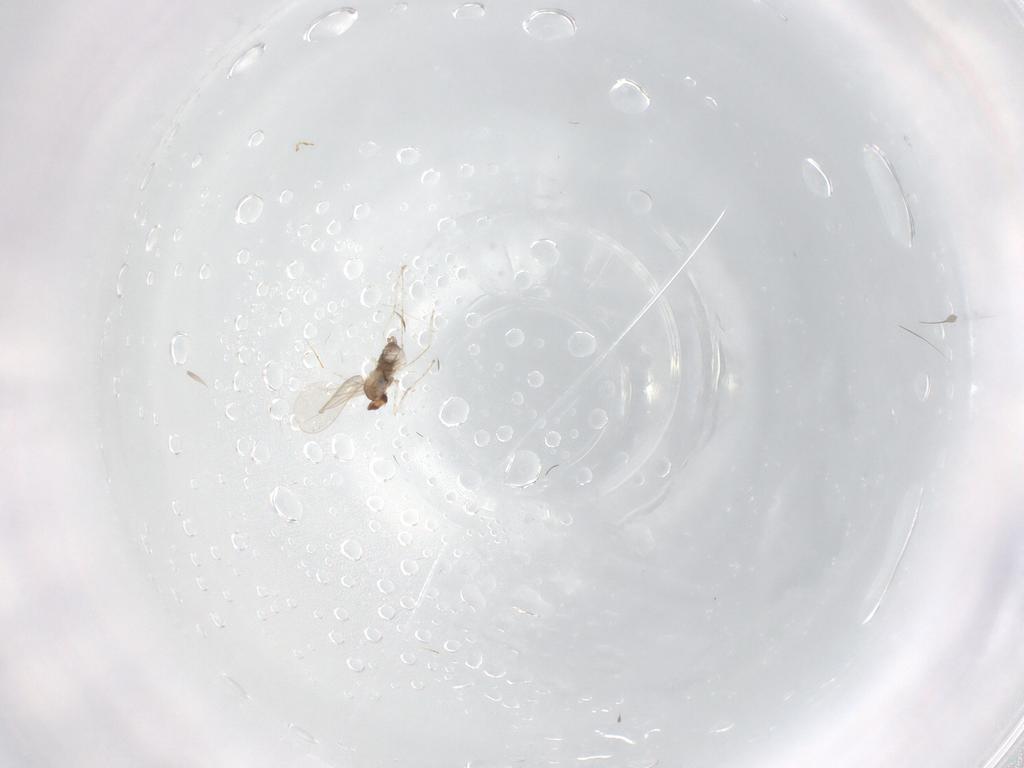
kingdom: Animalia
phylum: Arthropoda
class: Insecta
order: Diptera
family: Cecidomyiidae
